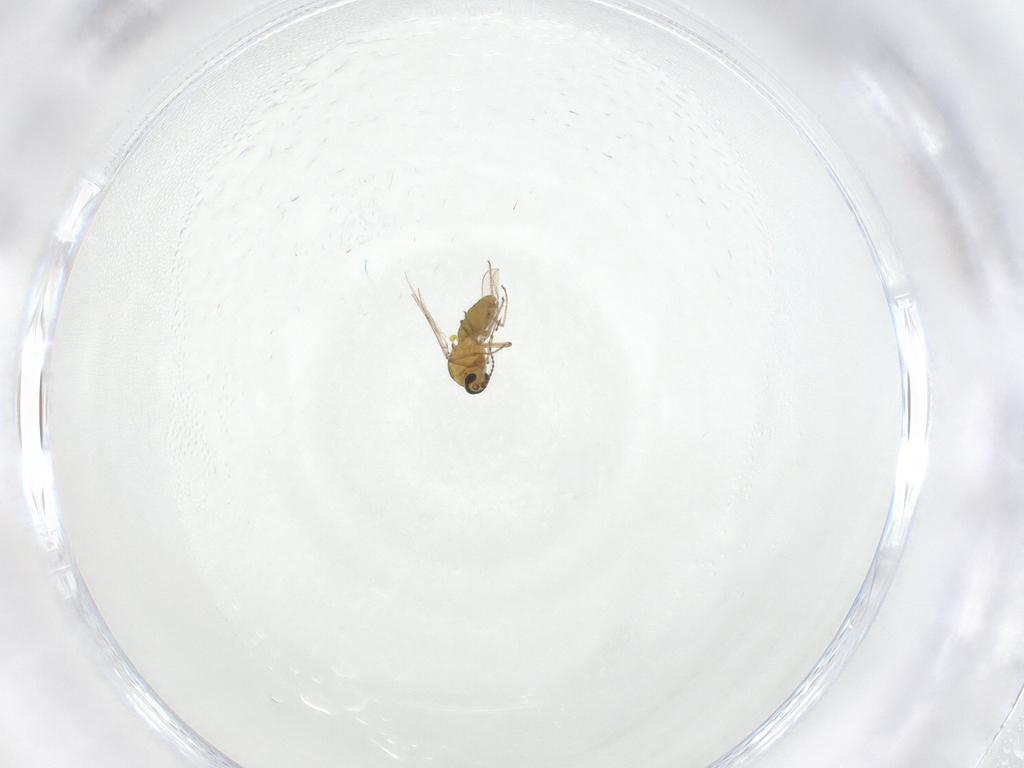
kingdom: Animalia
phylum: Arthropoda
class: Insecta
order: Diptera
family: Ceratopogonidae
